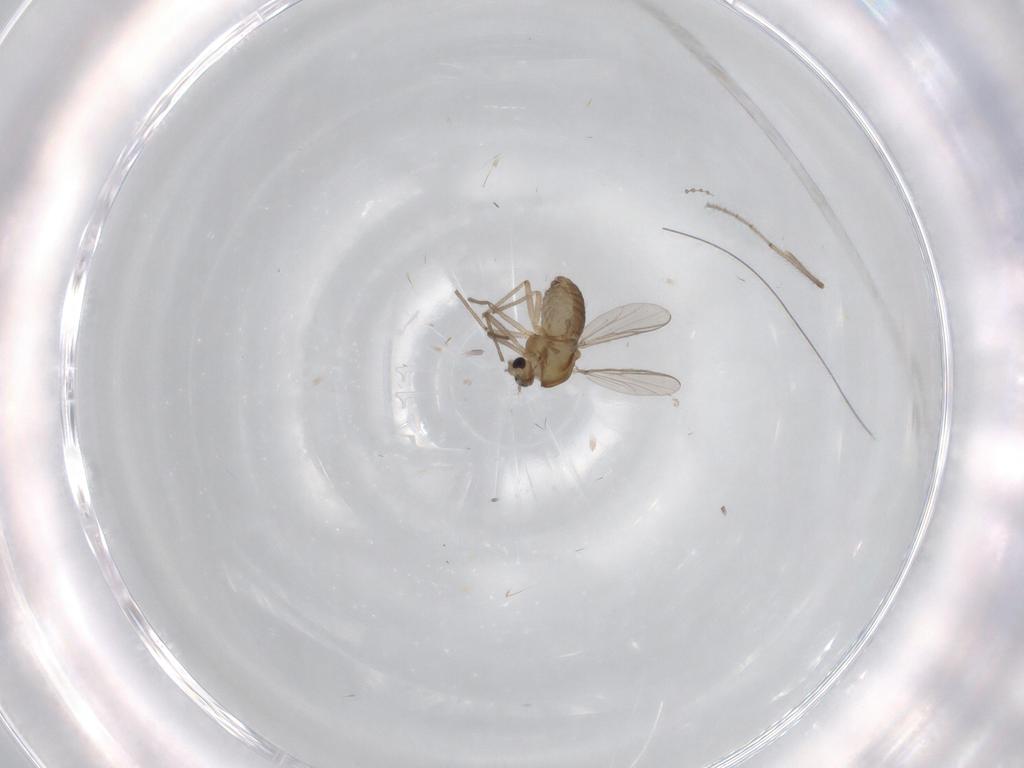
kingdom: Animalia
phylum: Arthropoda
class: Insecta
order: Diptera
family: Chironomidae
